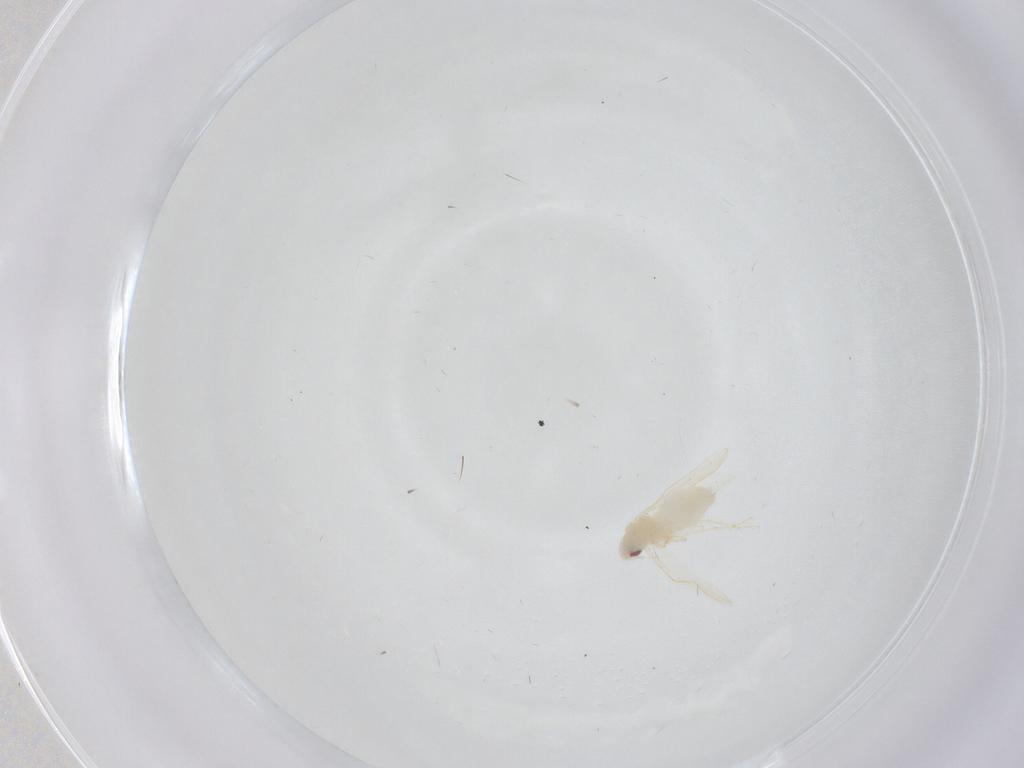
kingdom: Animalia
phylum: Arthropoda
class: Insecta
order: Hemiptera
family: Aleyrodidae
